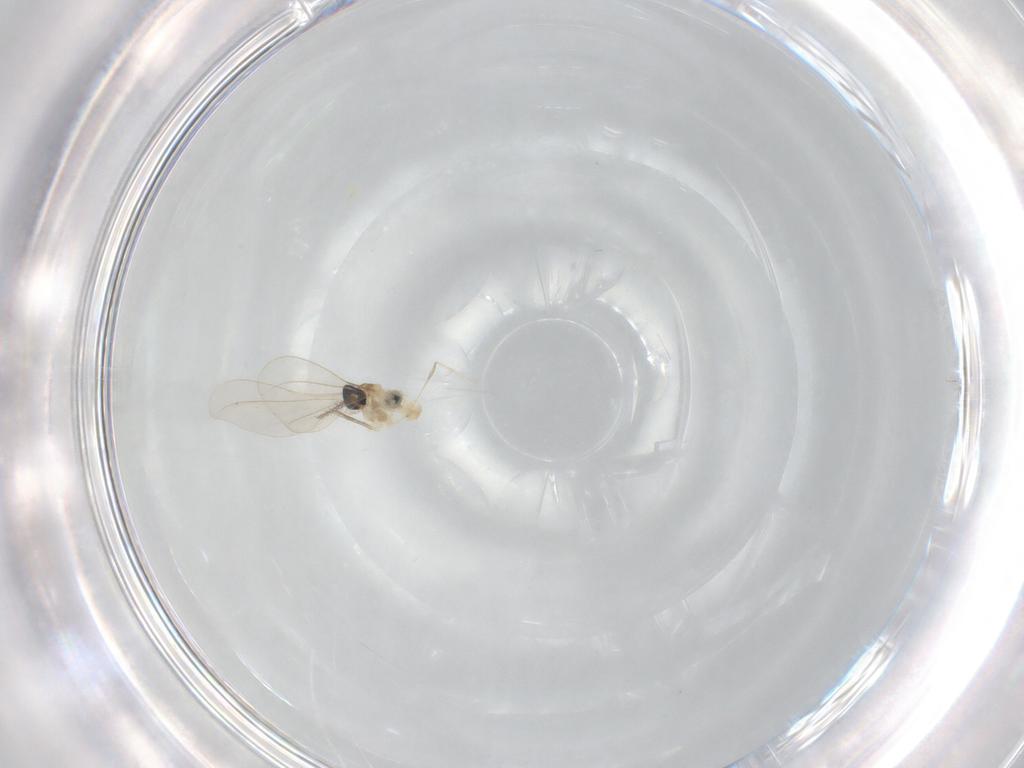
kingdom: Animalia
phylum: Arthropoda
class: Insecta
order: Diptera
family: Cecidomyiidae
